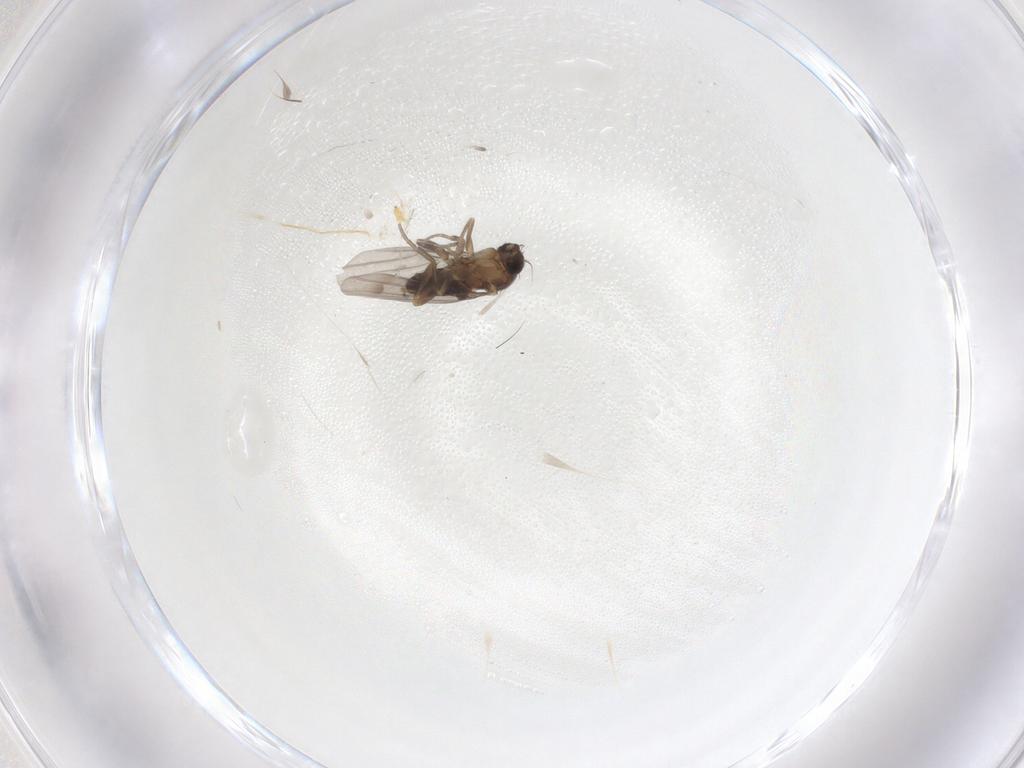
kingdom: Animalia
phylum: Arthropoda
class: Insecta
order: Diptera
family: Cecidomyiidae
